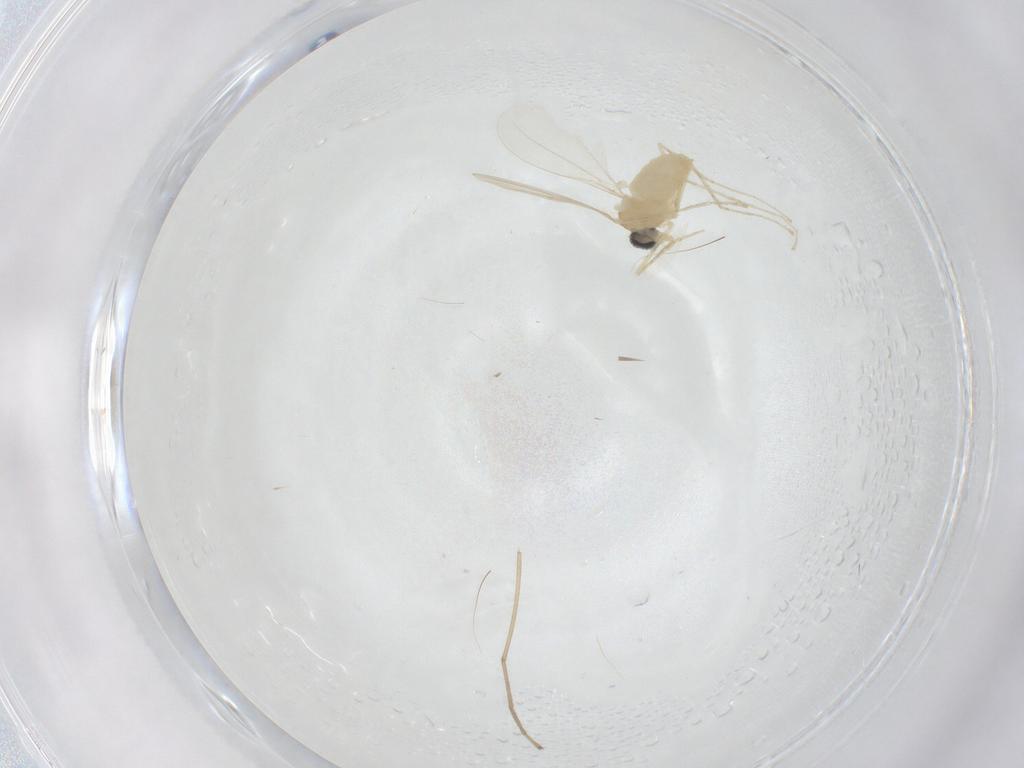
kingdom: Animalia
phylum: Arthropoda
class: Insecta
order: Diptera
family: Cecidomyiidae
